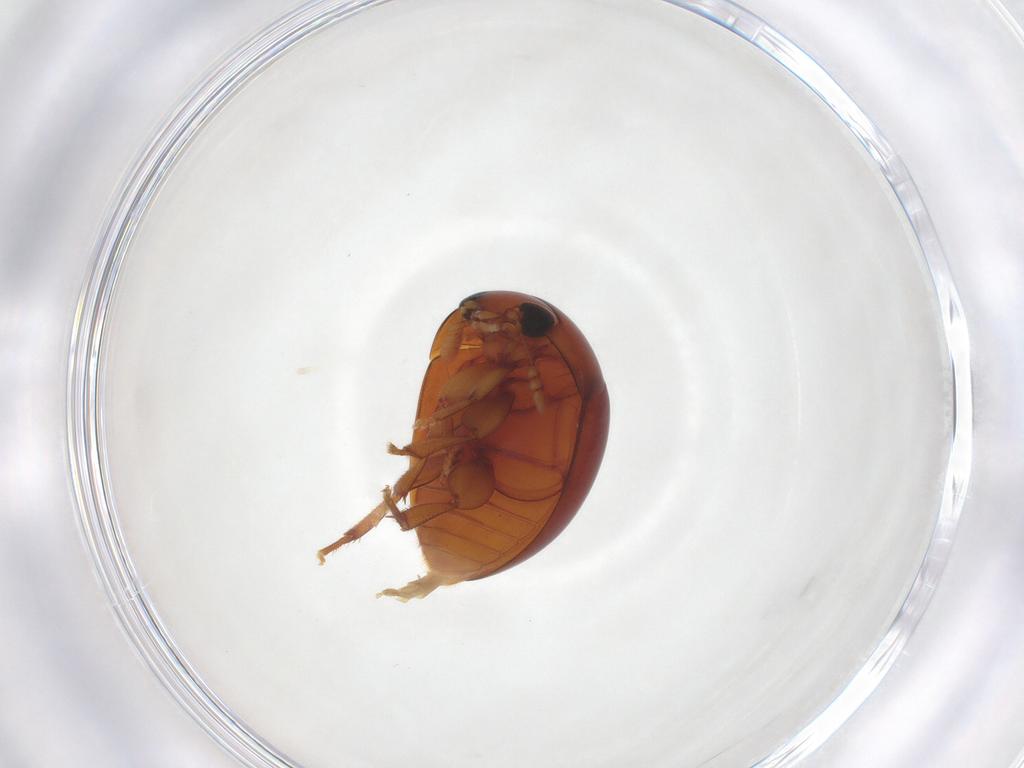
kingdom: Animalia
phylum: Arthropoda
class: Insecta
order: Coleoptera
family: Phalacridae
